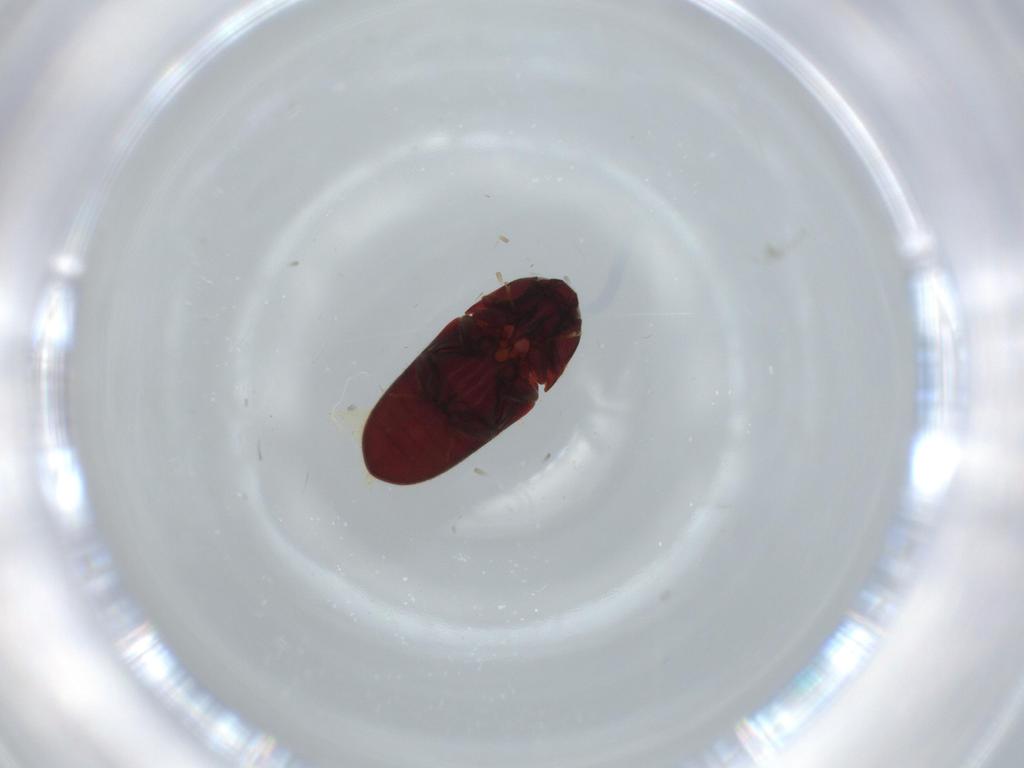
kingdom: Animalia
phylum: Arthropoda
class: Insecta
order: Coleoptera
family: Throscidae
